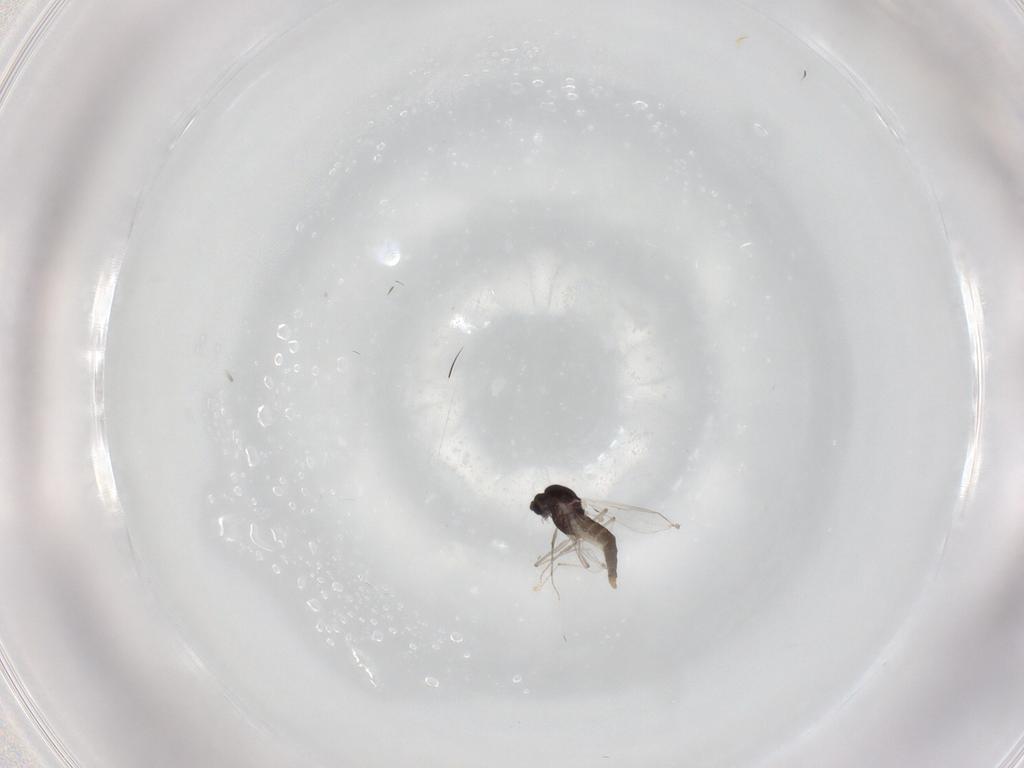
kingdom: Animalia
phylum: Arthropoda
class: Insecta
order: Diptera
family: Chironomidae
